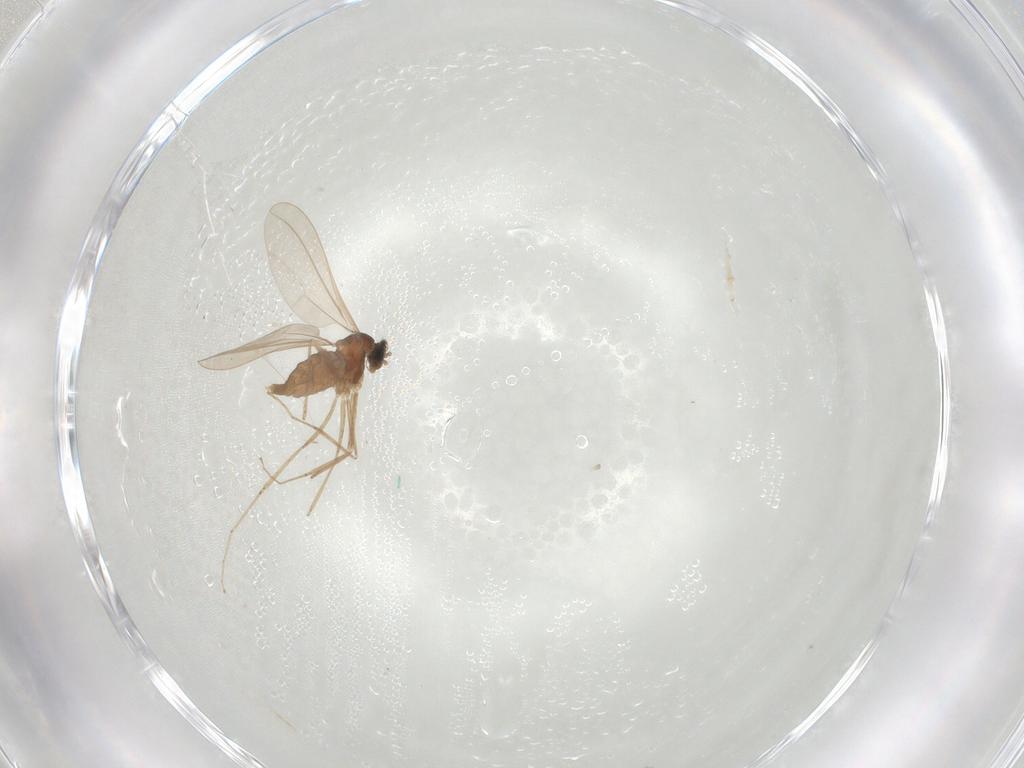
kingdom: Animalia
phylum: Arthropoda
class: Insecta
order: Diptera
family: Cecidomyiidae
